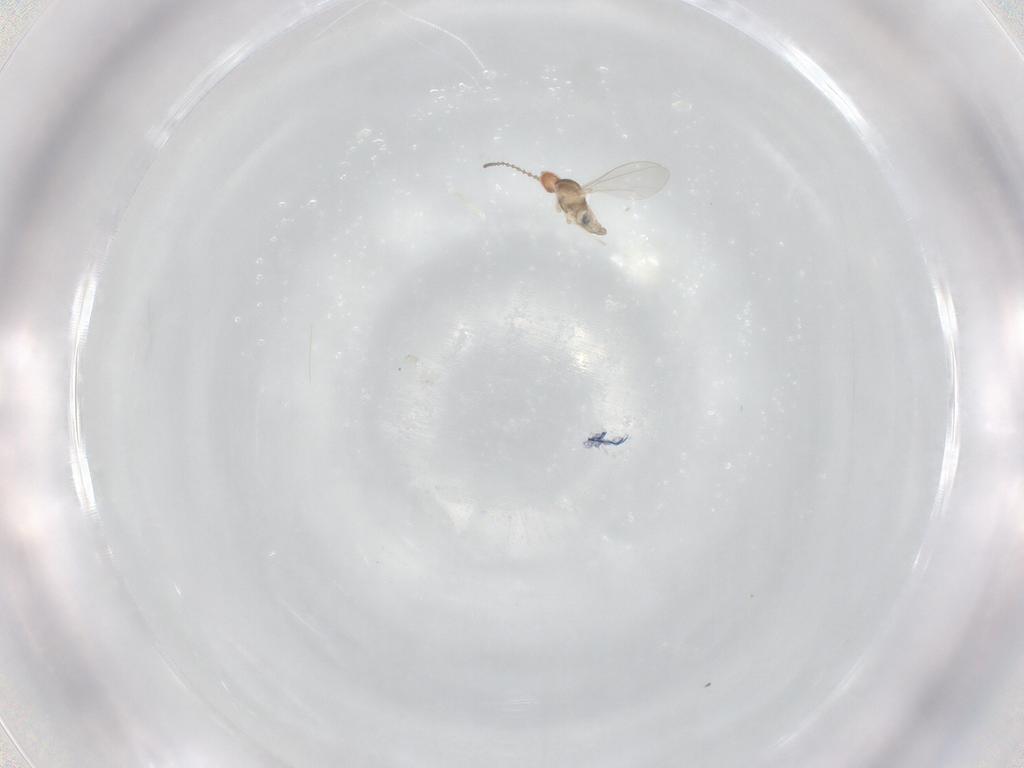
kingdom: Animalia
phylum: Arthropoda
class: Insecta
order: Diptera
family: Cecidomyiidae
